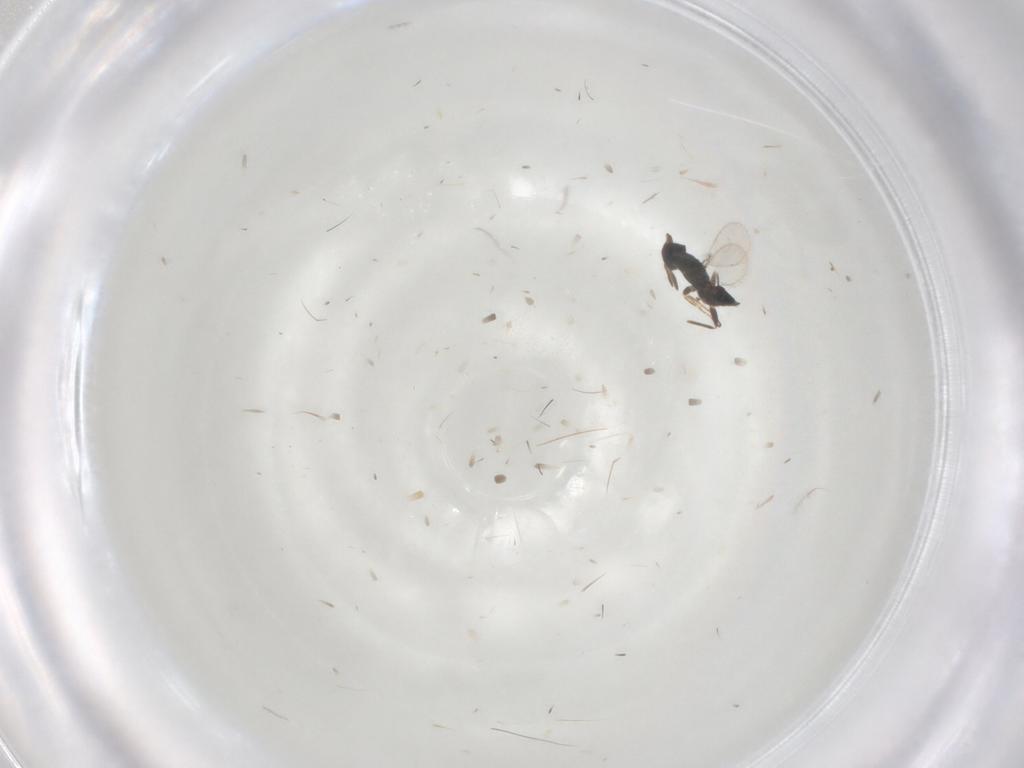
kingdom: Animalia
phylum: Arthropoda
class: Insecta
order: Hymenoptera
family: Mymaridae
